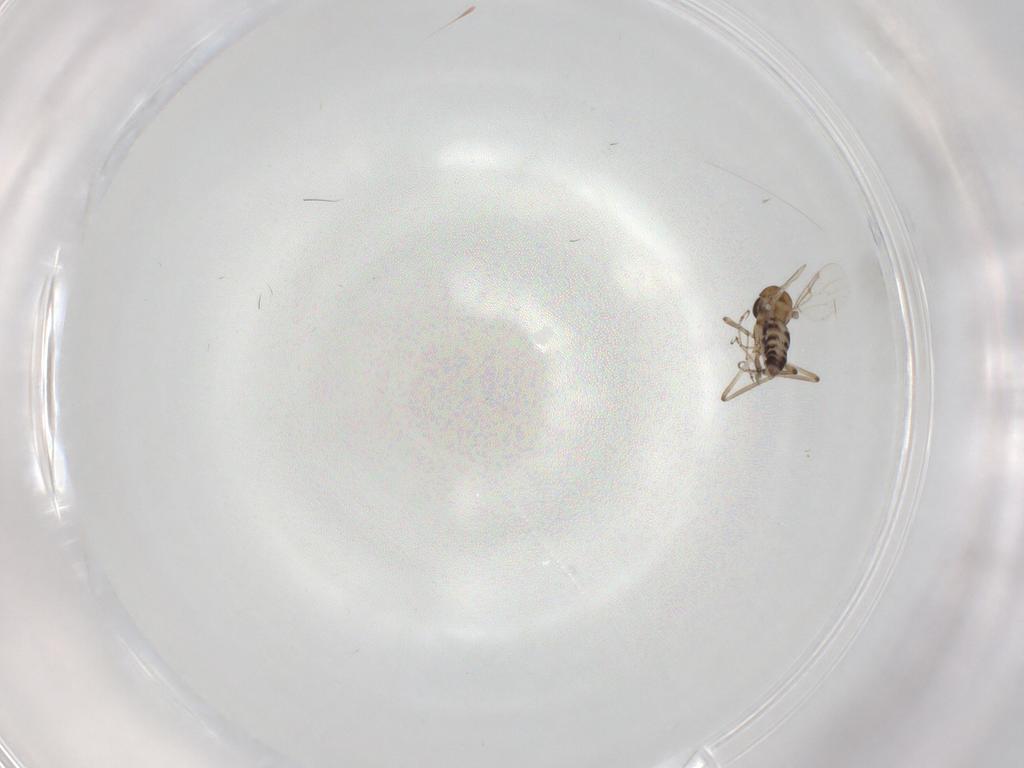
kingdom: Animalia
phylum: Arthropoda
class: Insecta
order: Diptera
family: Ceratopogonidae
